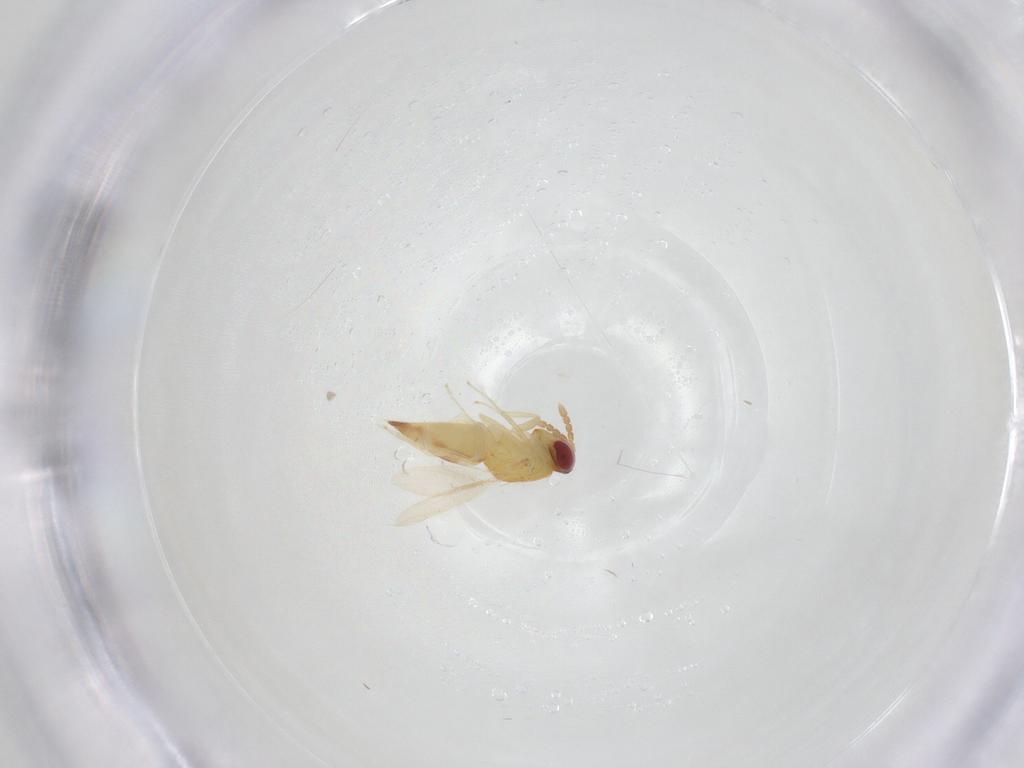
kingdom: Animalia
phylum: Arthropoda
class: Insecta
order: Hymenoptera
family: Eulophidae
